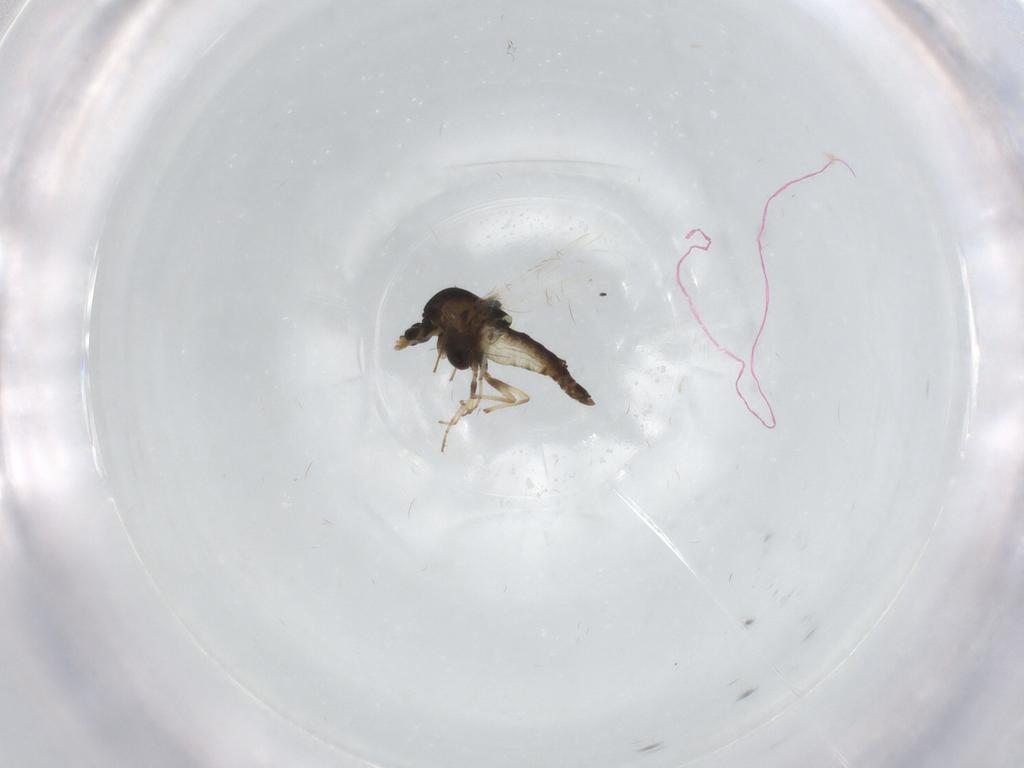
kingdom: Animalia
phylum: Arthropoda
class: Insecta
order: Diptera
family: Chironomidae
